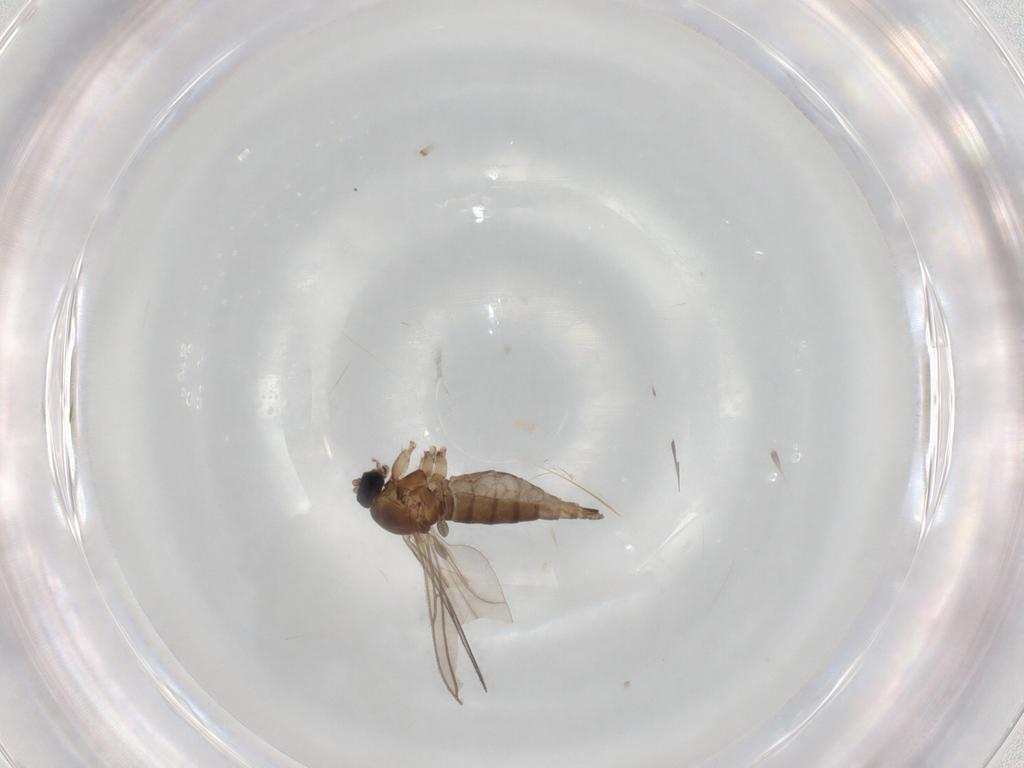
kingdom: Animalia
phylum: Arthropoda
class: Insecta
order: Diptera
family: Sciaridae
